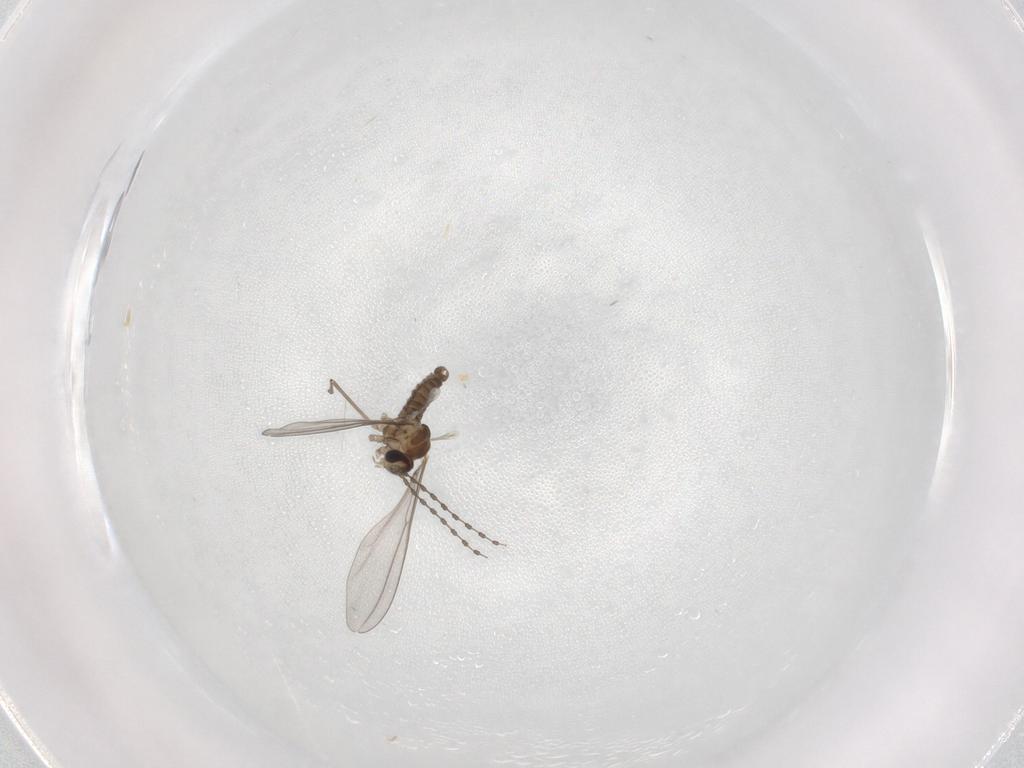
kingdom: Animalia
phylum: Arthropoda
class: Insecta
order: Diptera
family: Cecidomyiidae
